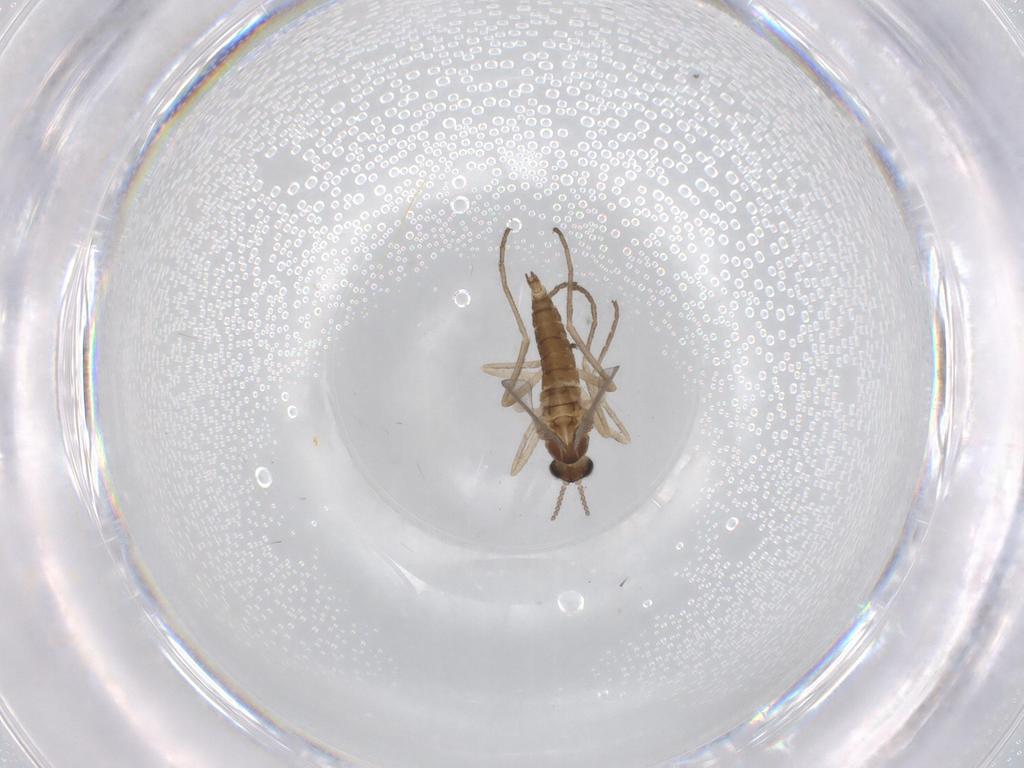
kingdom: Animalia
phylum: Arthropoda
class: Insecta
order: Diptera
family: Cecidomyiidae
